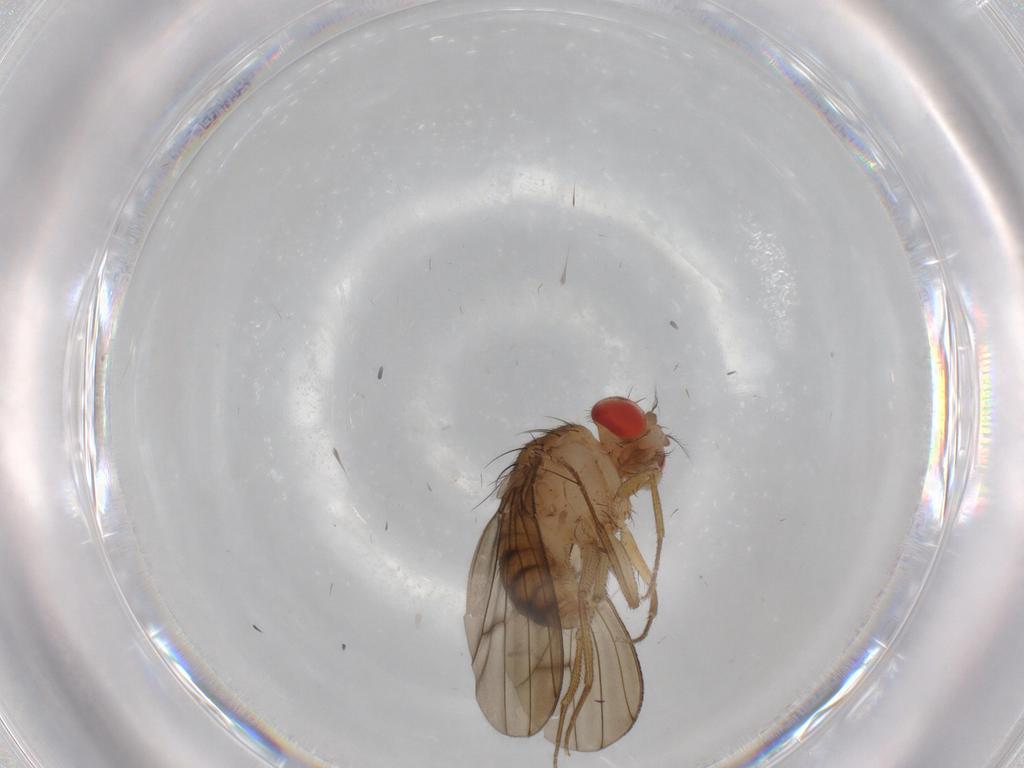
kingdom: Animalia
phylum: Arthropoda
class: Insecta
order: Diptera
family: Drosophilidae
